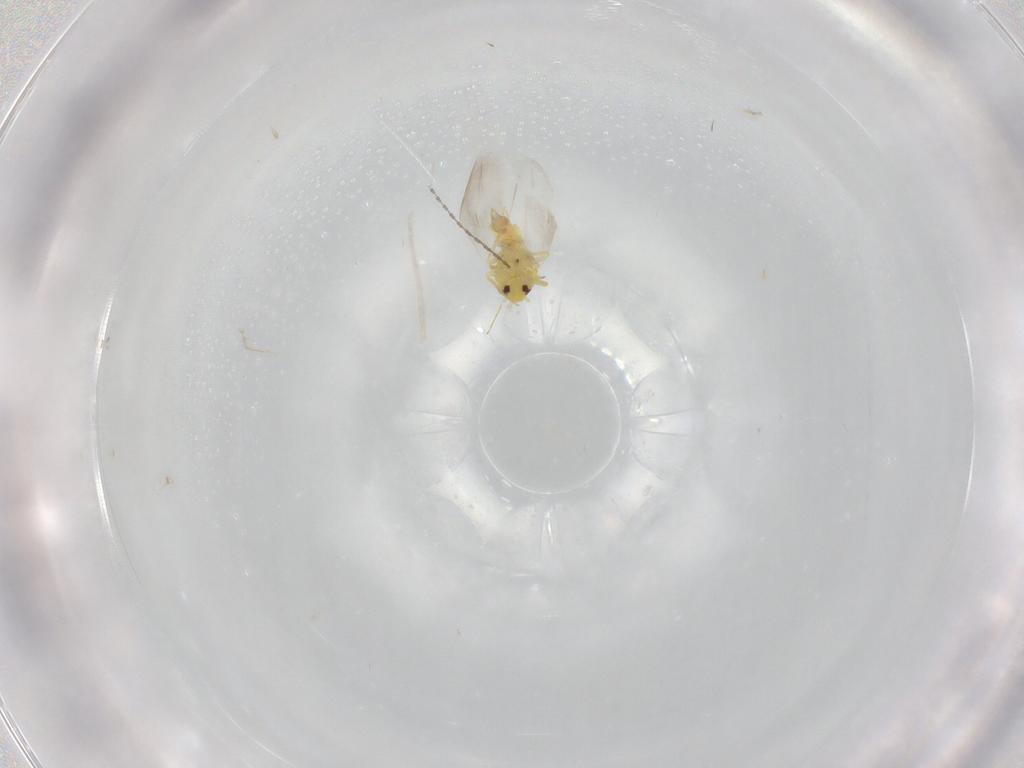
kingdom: Animalia
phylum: Arthropoda
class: Insecta
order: Hemiptera
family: Aleyrodidae
